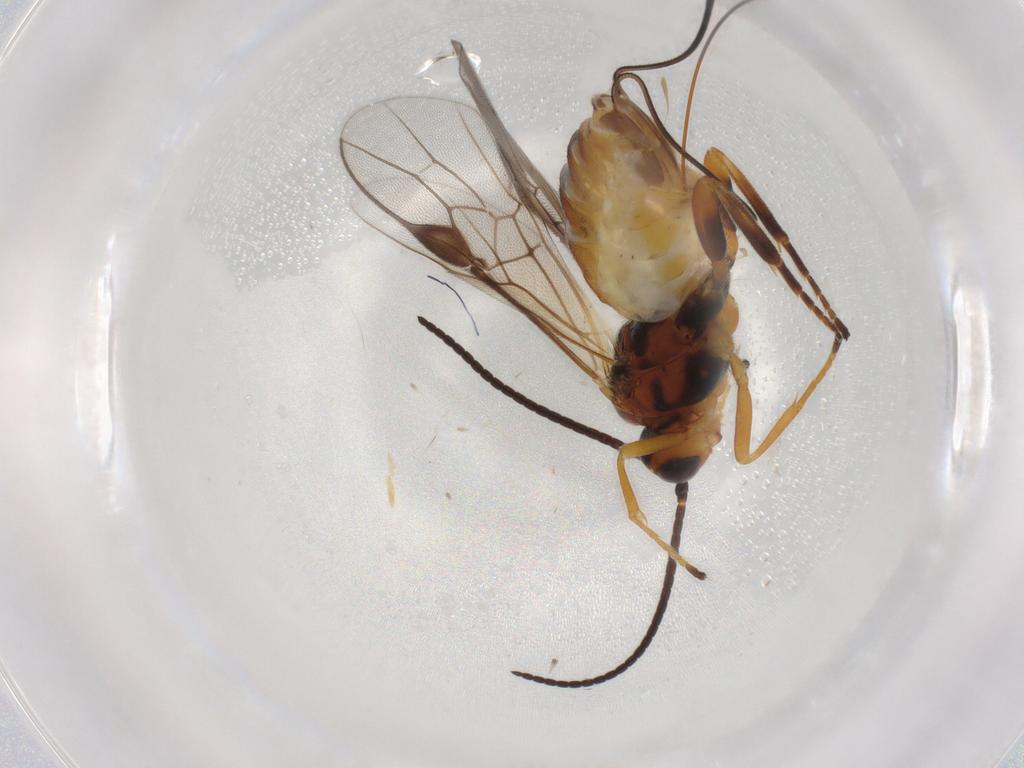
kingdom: Animalia
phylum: Arthropoda
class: Insecta
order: Hymenoptera
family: Braconidae
